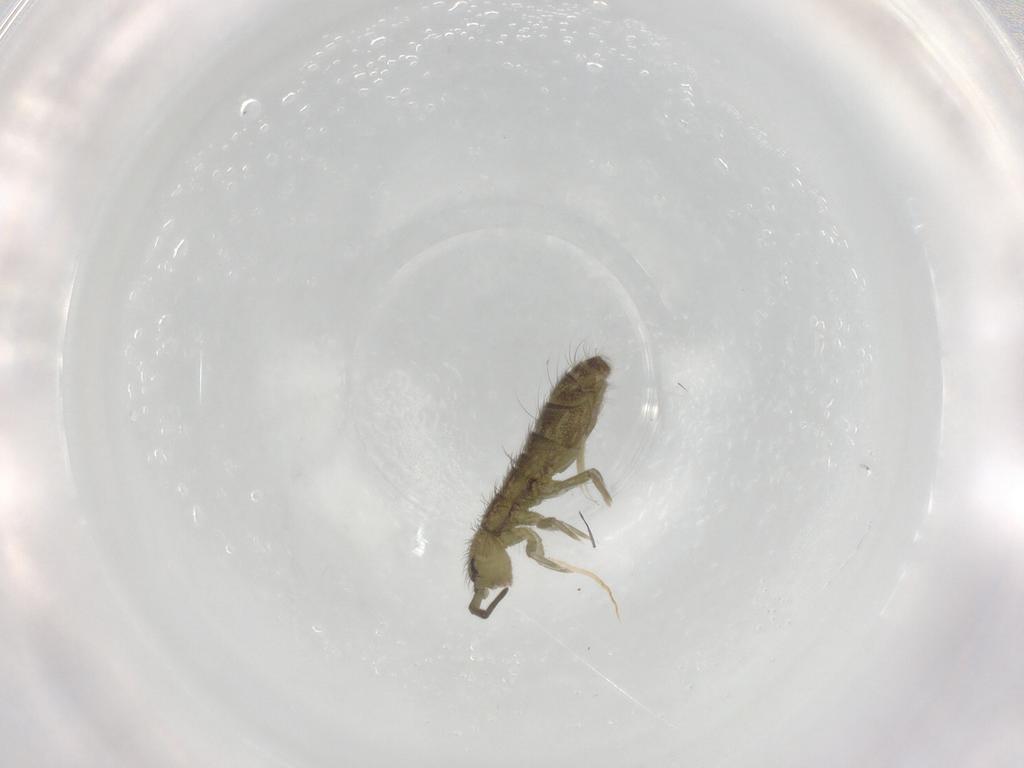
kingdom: Animalia
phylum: Arthropoda
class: Collembola
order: Entomobryomorpha
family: Isotomidae
